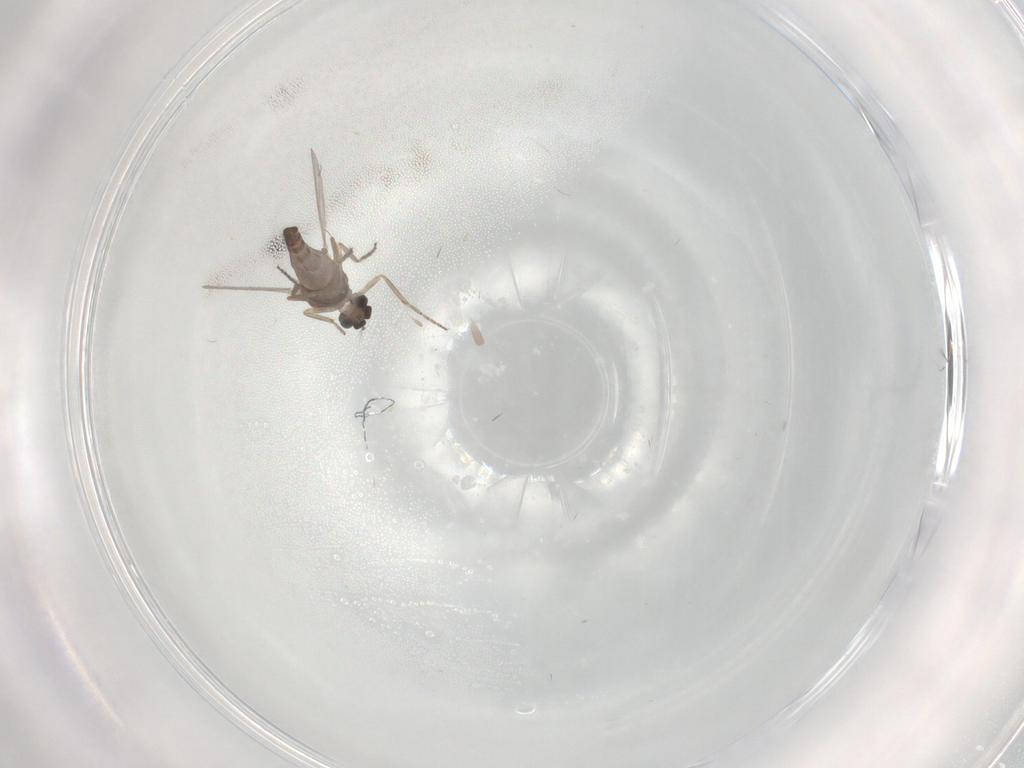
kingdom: Animalia
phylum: Arthropoda
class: Insecta
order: Diptera
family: Ceratopogonidae
